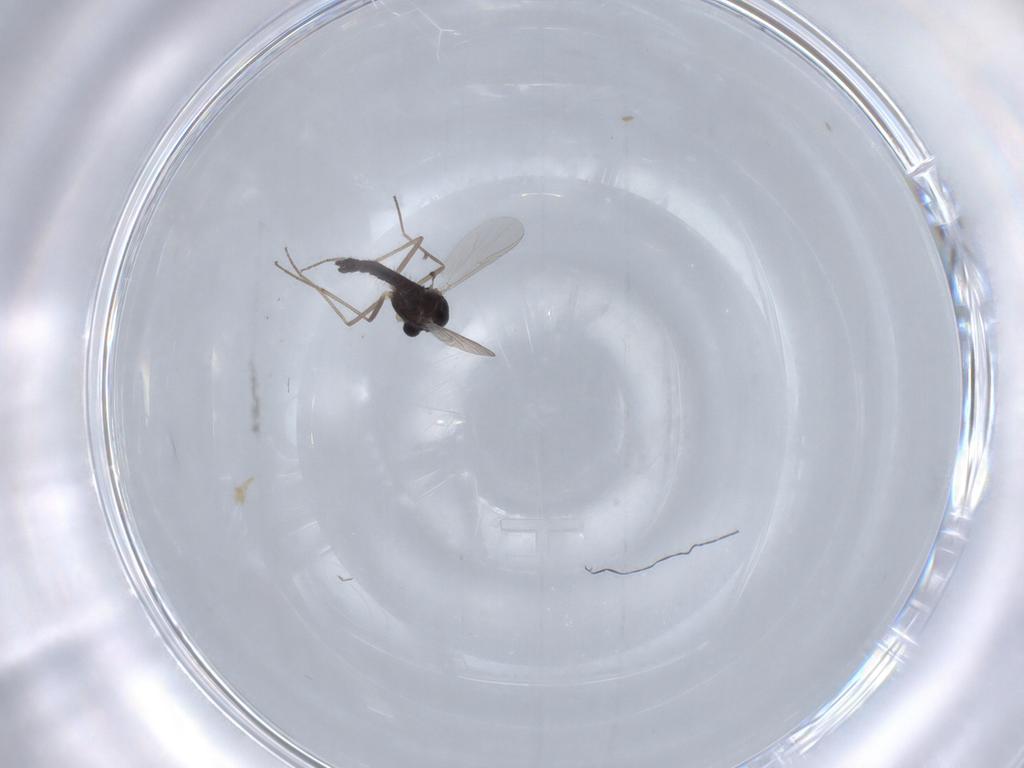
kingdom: Animalia
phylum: Arthropoda
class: Insecta
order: Diptera
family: Chironomidae
